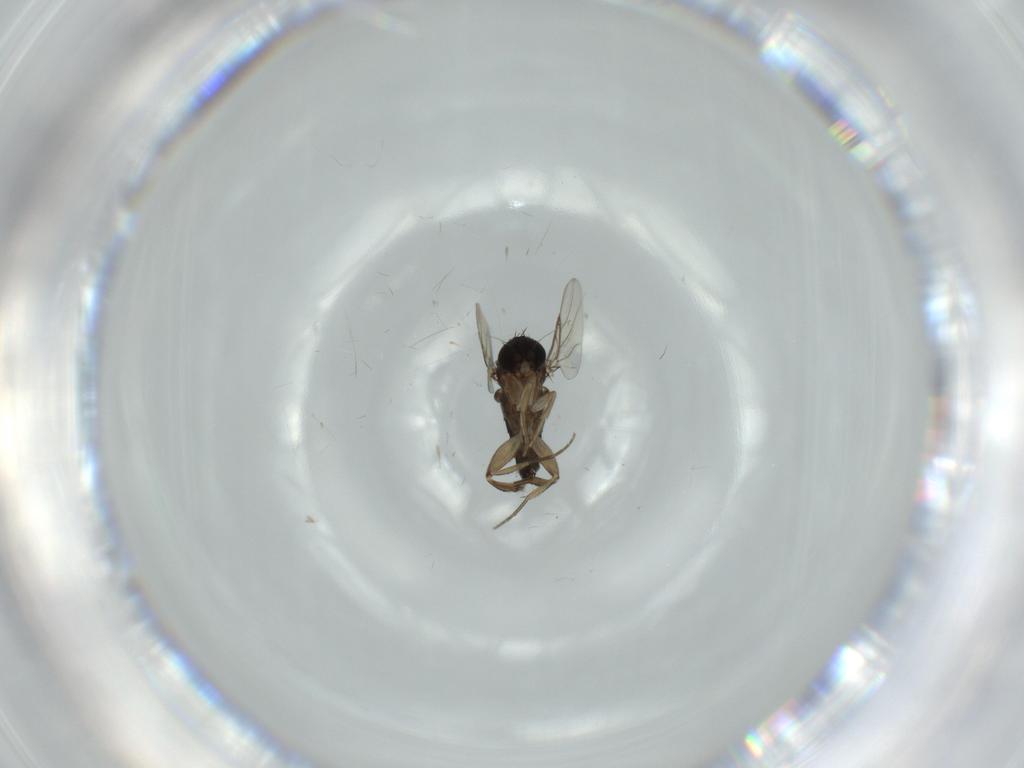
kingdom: Animalia
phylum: Arthropoda
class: Insecta
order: Diptera
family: Phoridae
